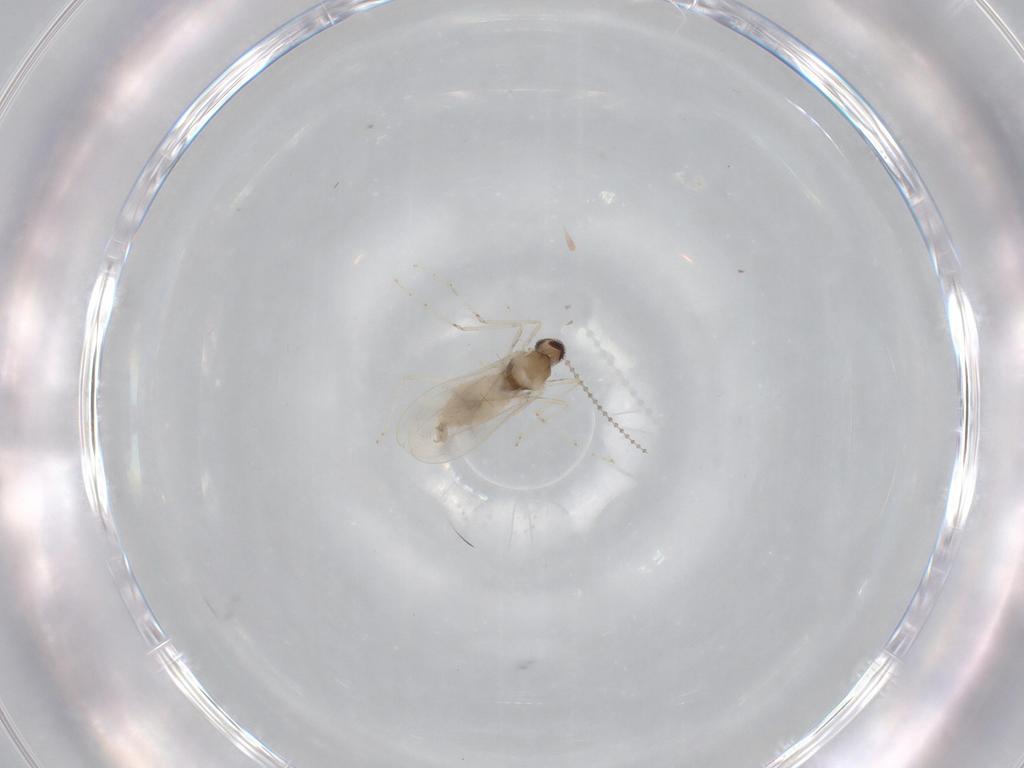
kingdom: Animalia
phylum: Arthropoda
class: Insecta
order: Diptera
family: Cecidomyiidae
